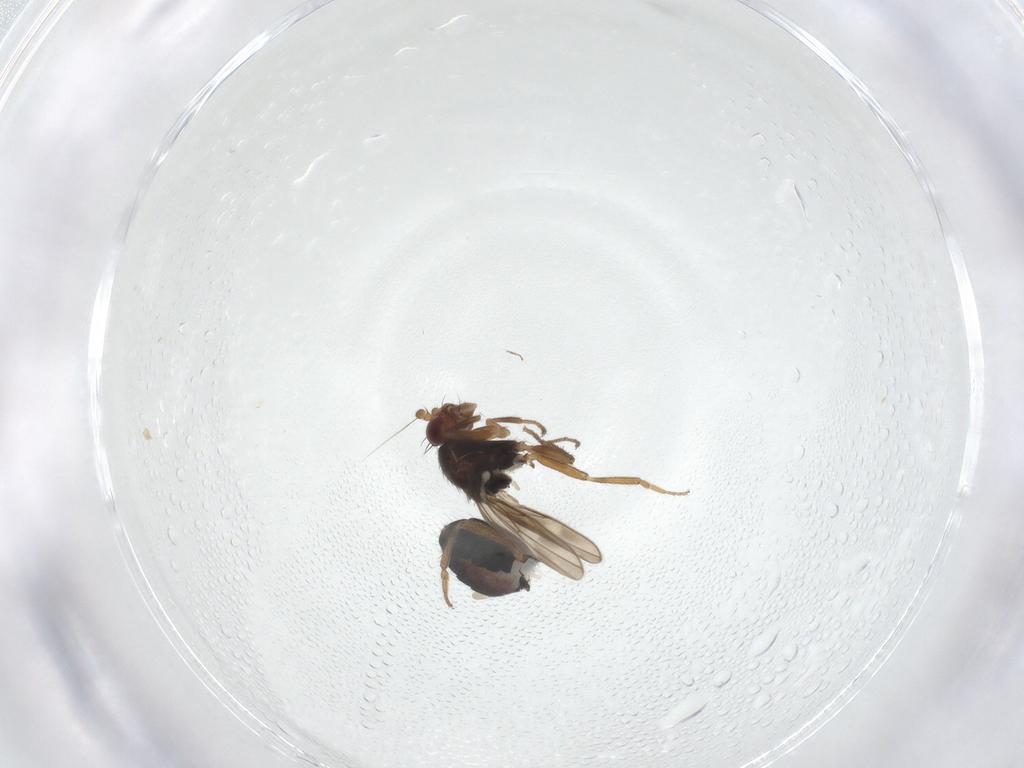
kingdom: Animalia
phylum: Arthropoda
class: Insecta
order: Diptera
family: Sphaeroceridae
